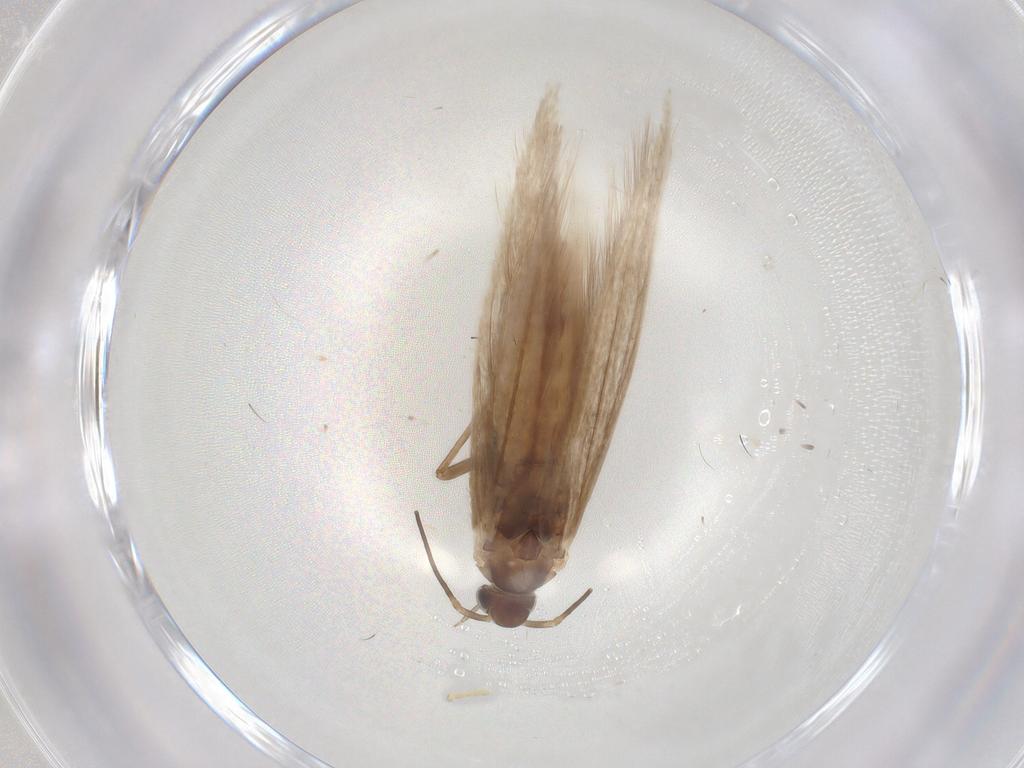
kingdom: Animalia
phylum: Arthropoda
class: Insecta
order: Lepidoptera
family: Coleophoridae
